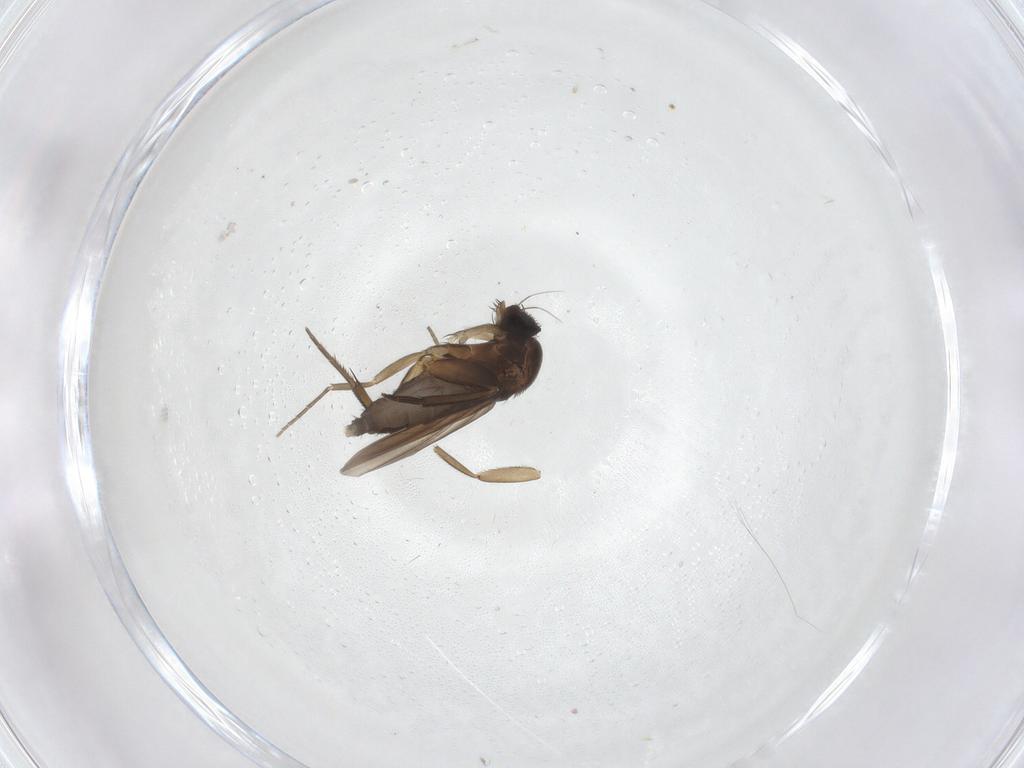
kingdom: Animalia
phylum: Arthropoda
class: Insecta
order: Diptera
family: Phoridae
